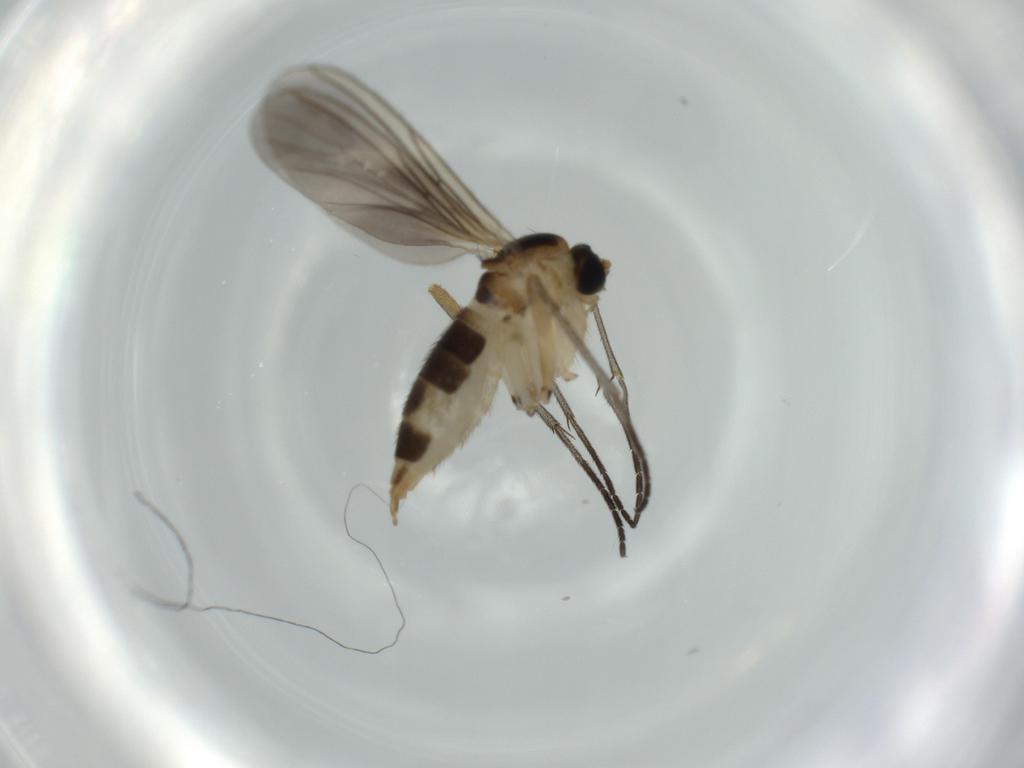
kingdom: Animalia
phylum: Arthropoda
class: Insecta
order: Diptera
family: Sciaridae
